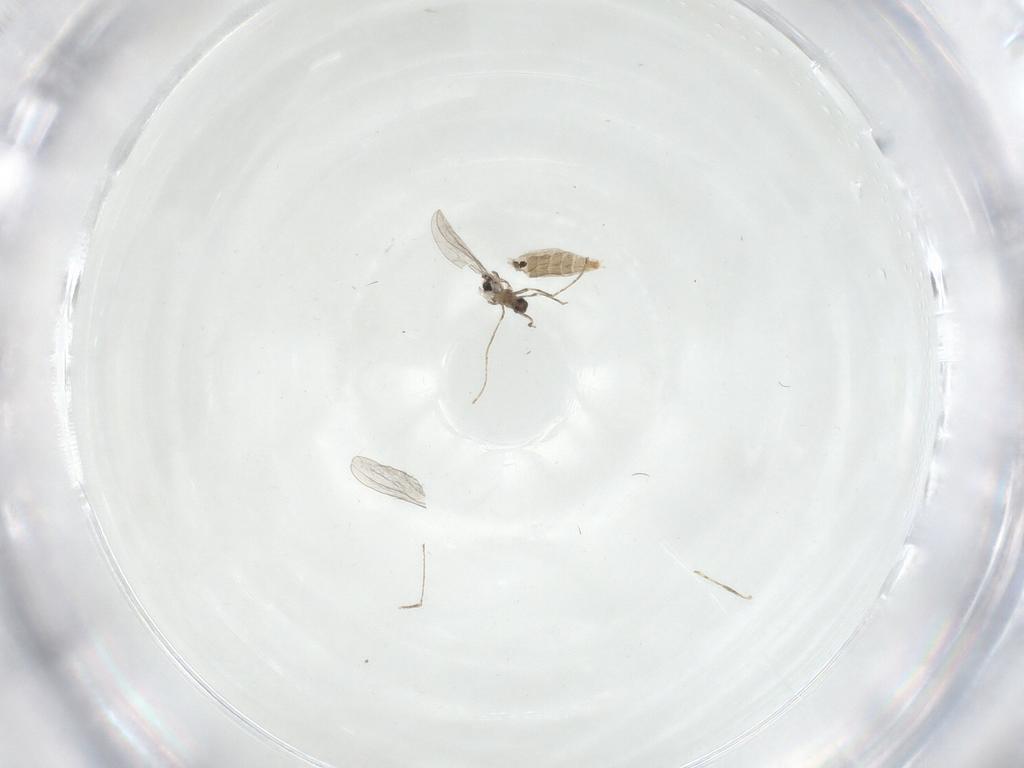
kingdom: Animalia
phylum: Arthropoda
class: Insecta
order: Diptera
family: Sciaridae
